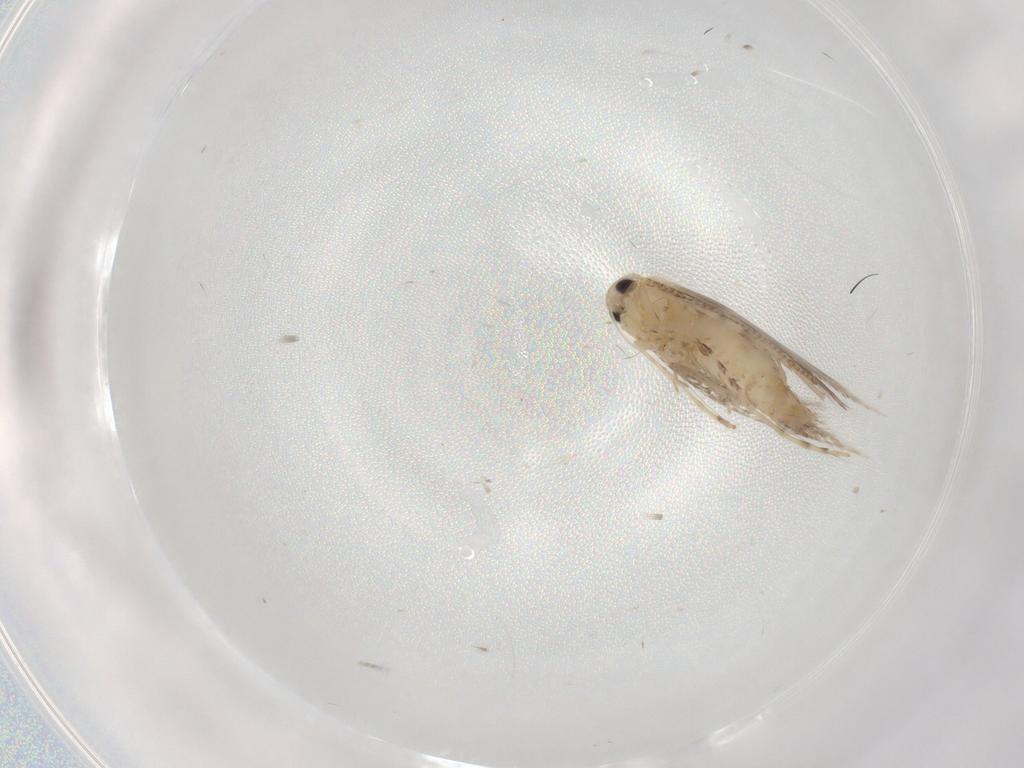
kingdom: Animalia
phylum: Arthropoda
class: Insecta
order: Lepidoptera
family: Gracillariidae
